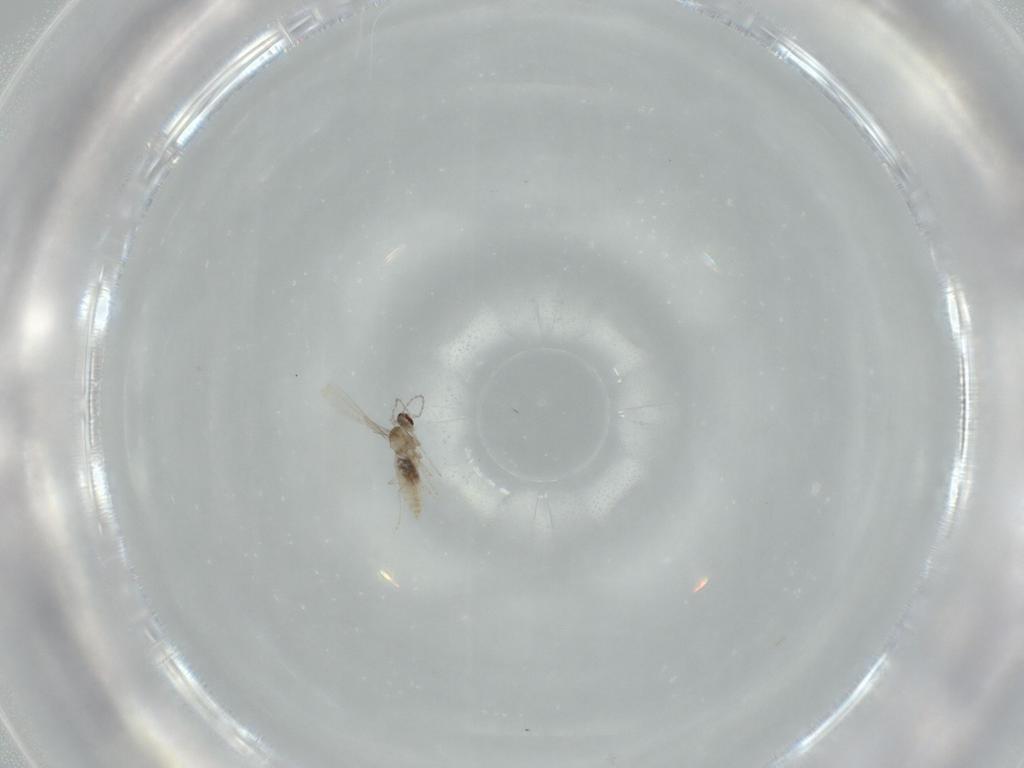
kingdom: Animalia
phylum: Arthropoda
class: Insecta
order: Diptera
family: Cecidomyiidae
